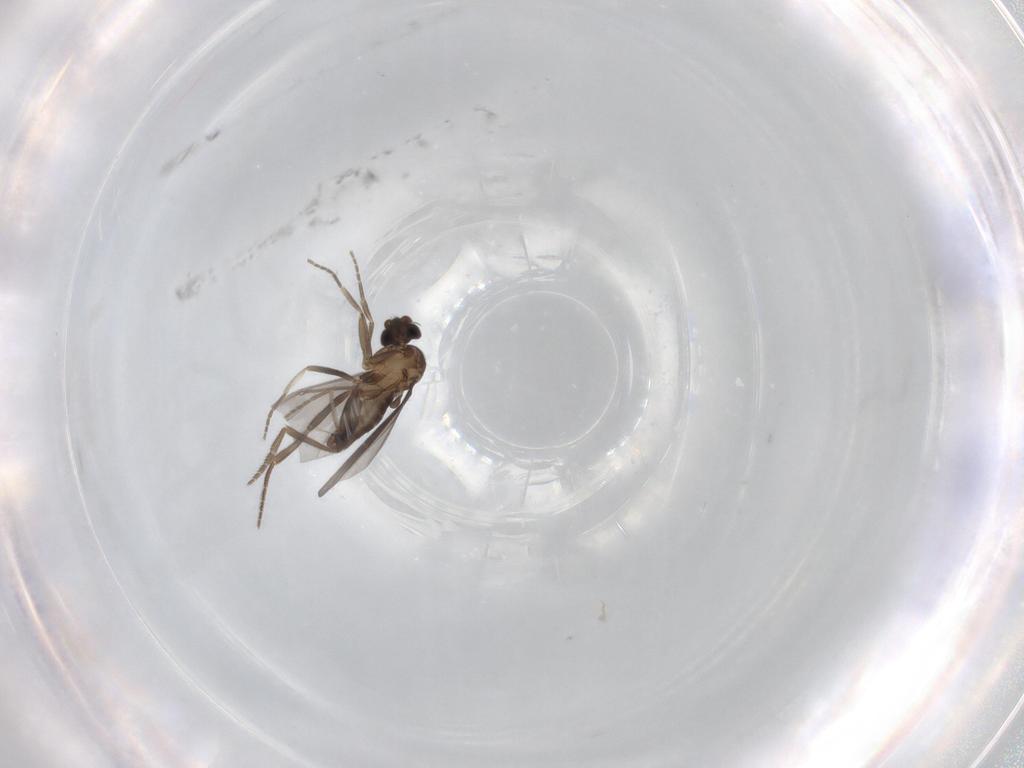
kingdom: Animalia
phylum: Arthropoda
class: Insecta
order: Diptera
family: Phoridae
